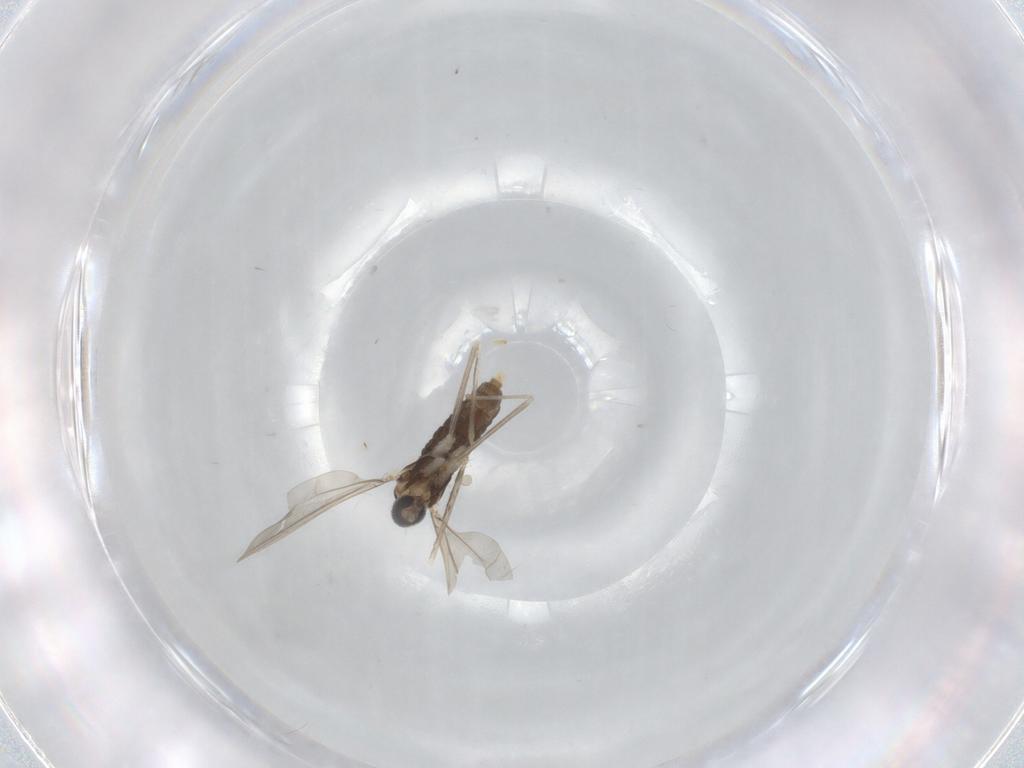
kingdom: Animalia
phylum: Arthropoda
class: Insecta
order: Diptera
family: Cecidomyiidae
